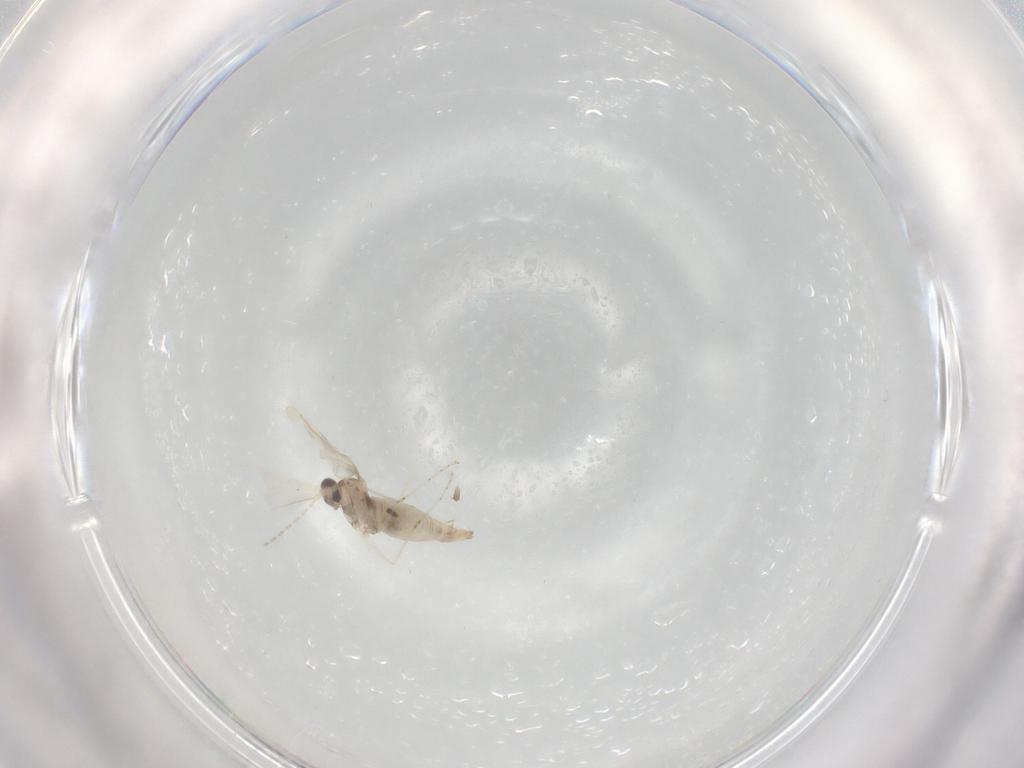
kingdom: Animalia
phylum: Arthropoda
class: Insecta
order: Diptera
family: Cecidomyiidae
